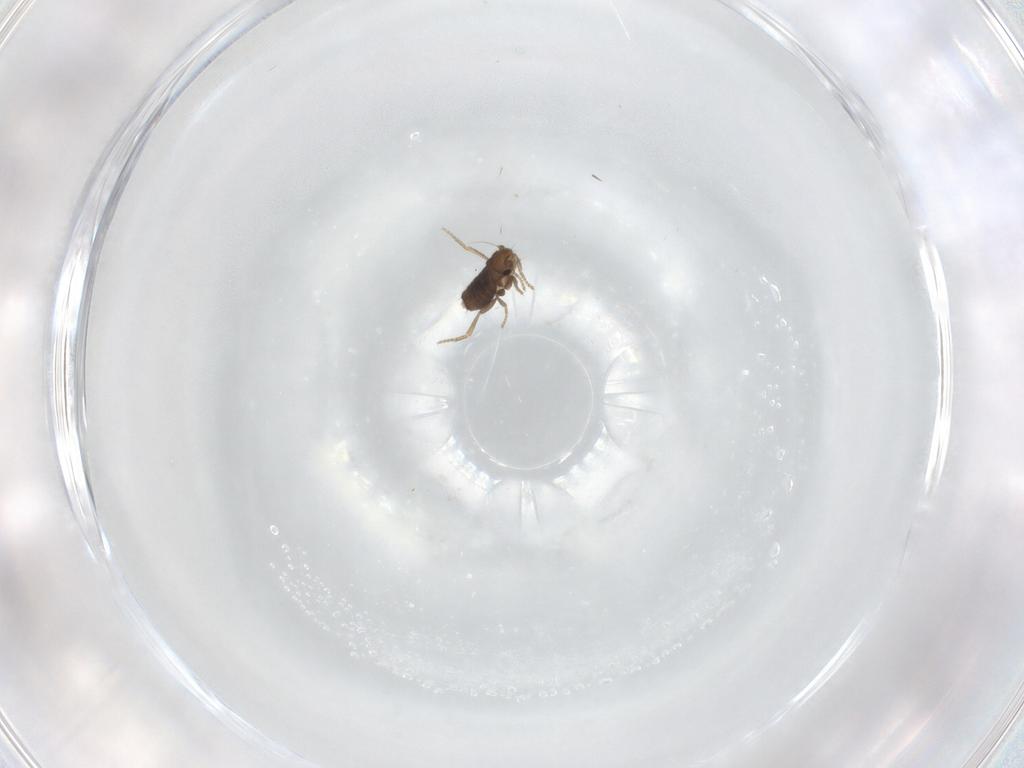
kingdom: Animalia
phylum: Arthropoda
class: Insecta
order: Diptera
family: Phoridae
